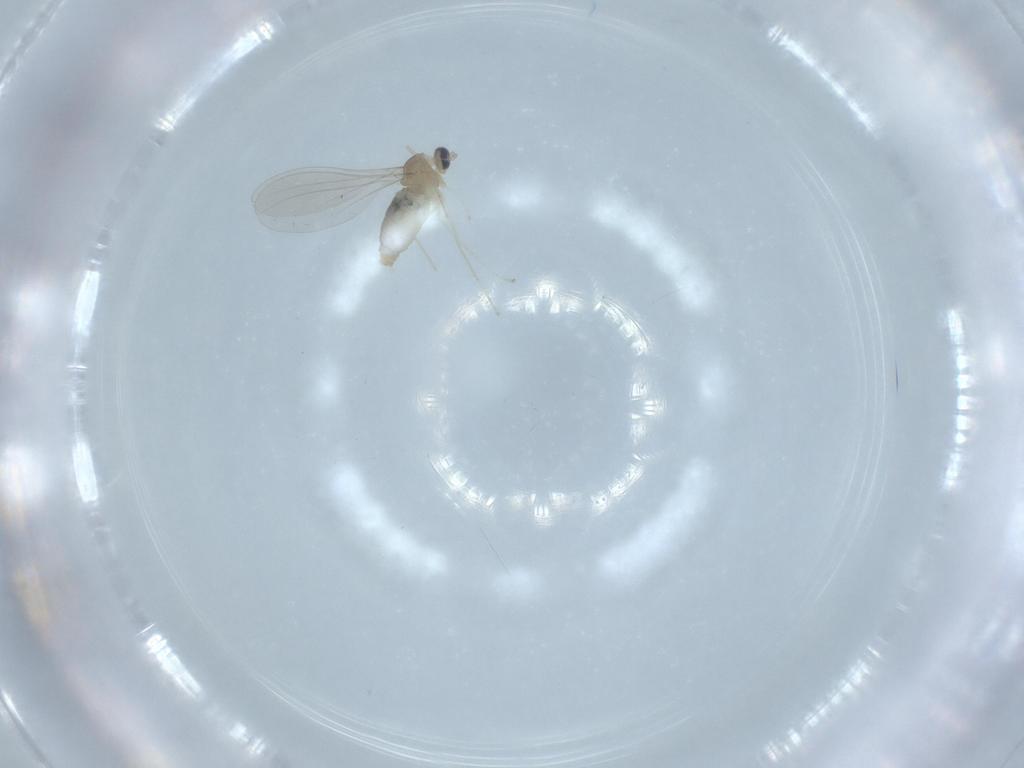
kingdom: Animalia
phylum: Arthropoda
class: Insecta
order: Diptera
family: Cecidomyiidae
